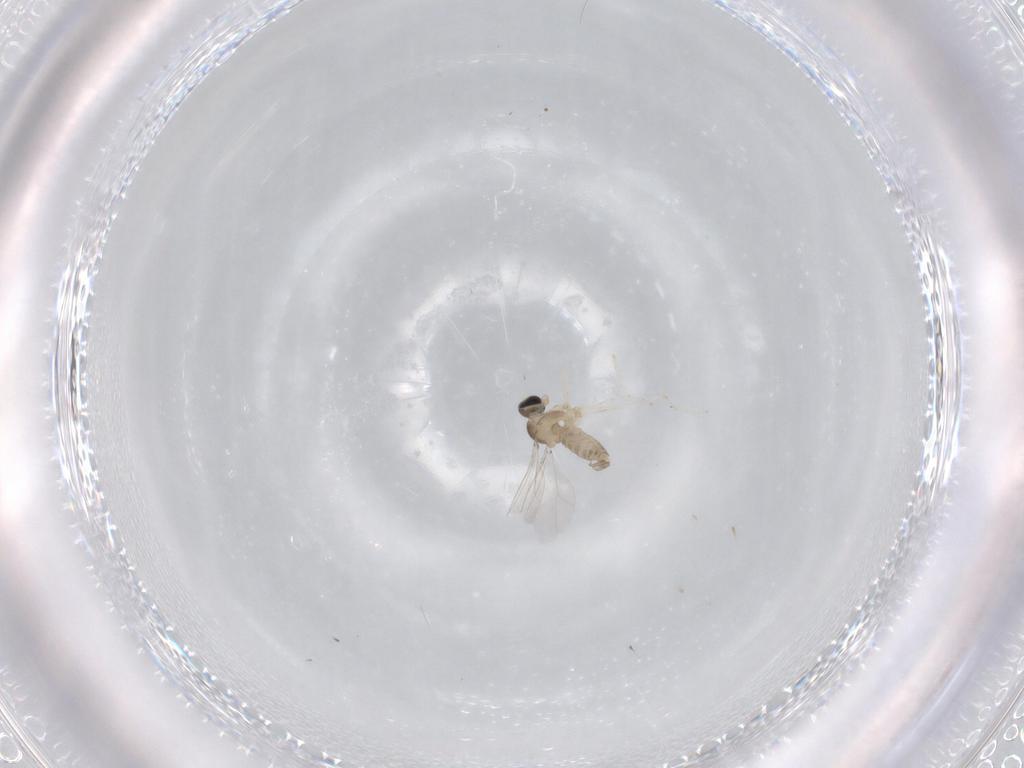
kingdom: Animalia
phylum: Arthropoda
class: Insecta
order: Diptera
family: Cecidomyiidae
